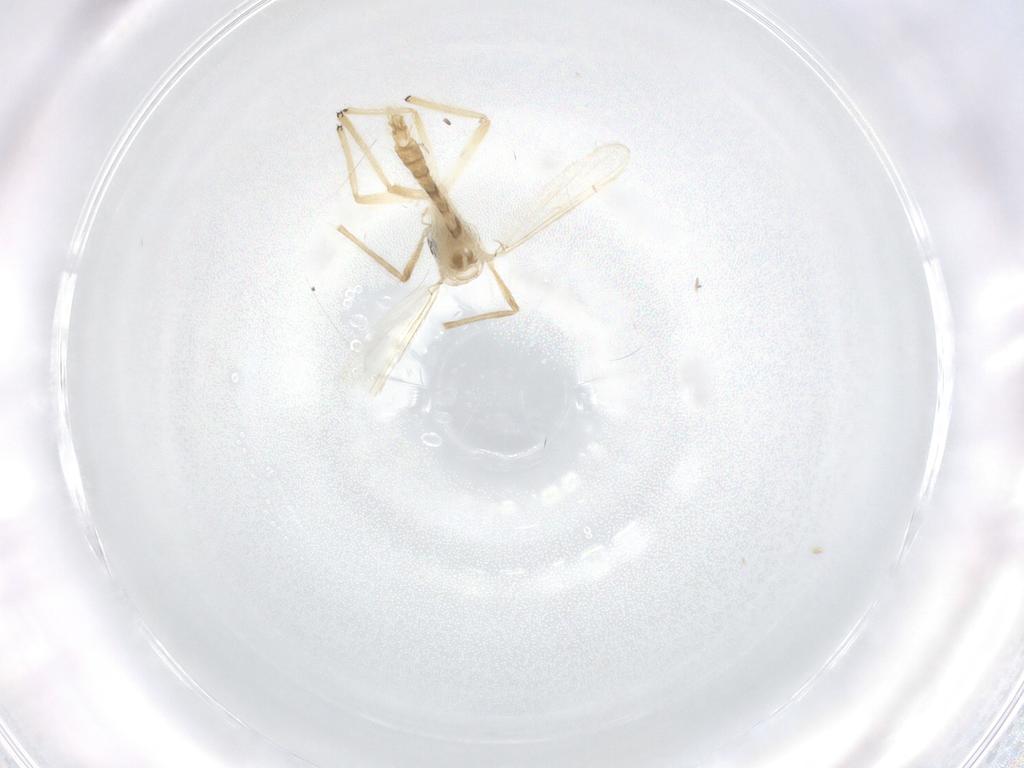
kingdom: Animalia
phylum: Arthropoda
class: Insecta
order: Diptera
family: Chironomidae
